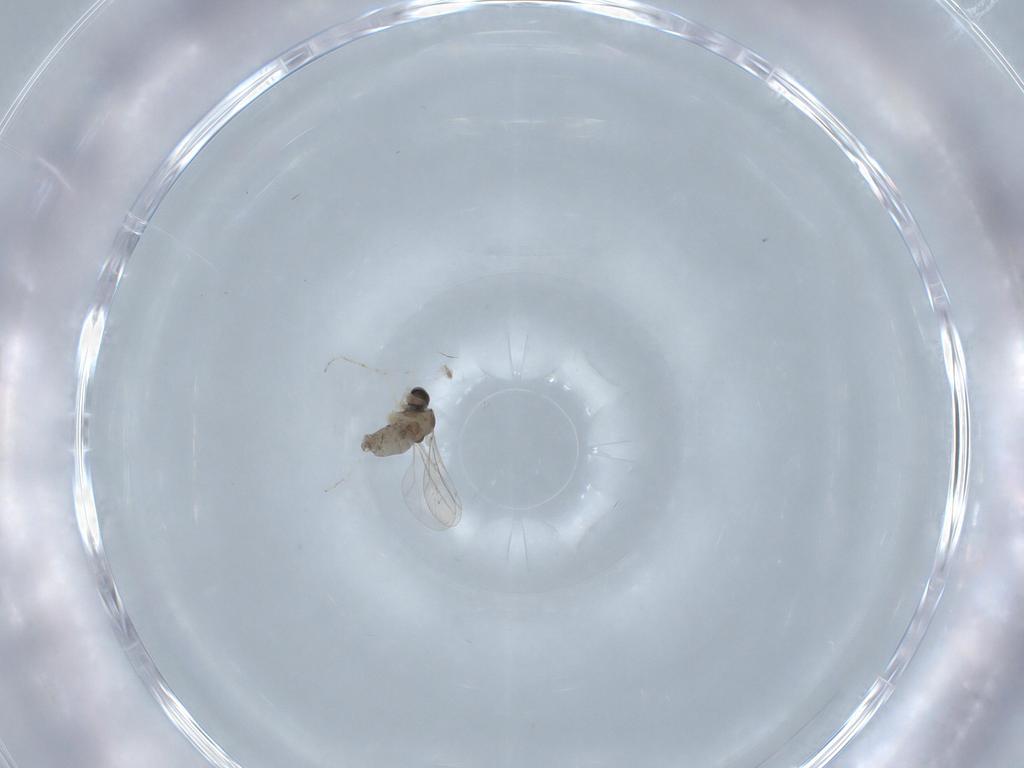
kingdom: Animalia
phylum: Arthropoda
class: Insecta
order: Diptera
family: Cecidomyiidae
